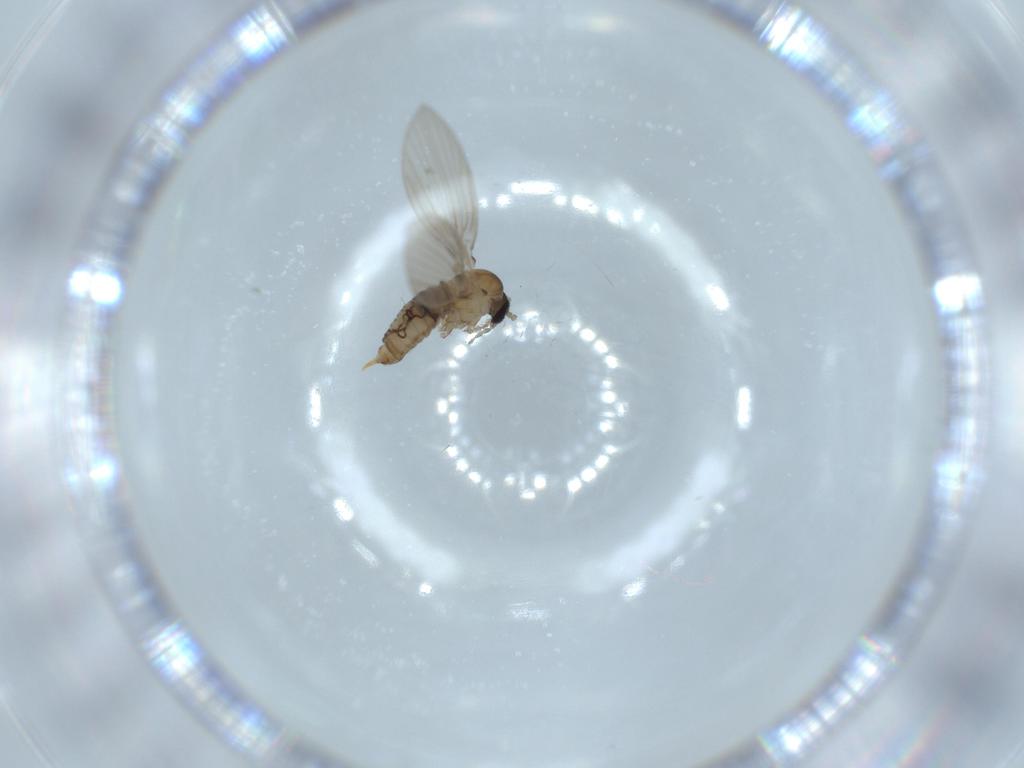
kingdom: Animalia
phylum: Arthropoda
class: Insecta
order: Diptera
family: Psychodidae
